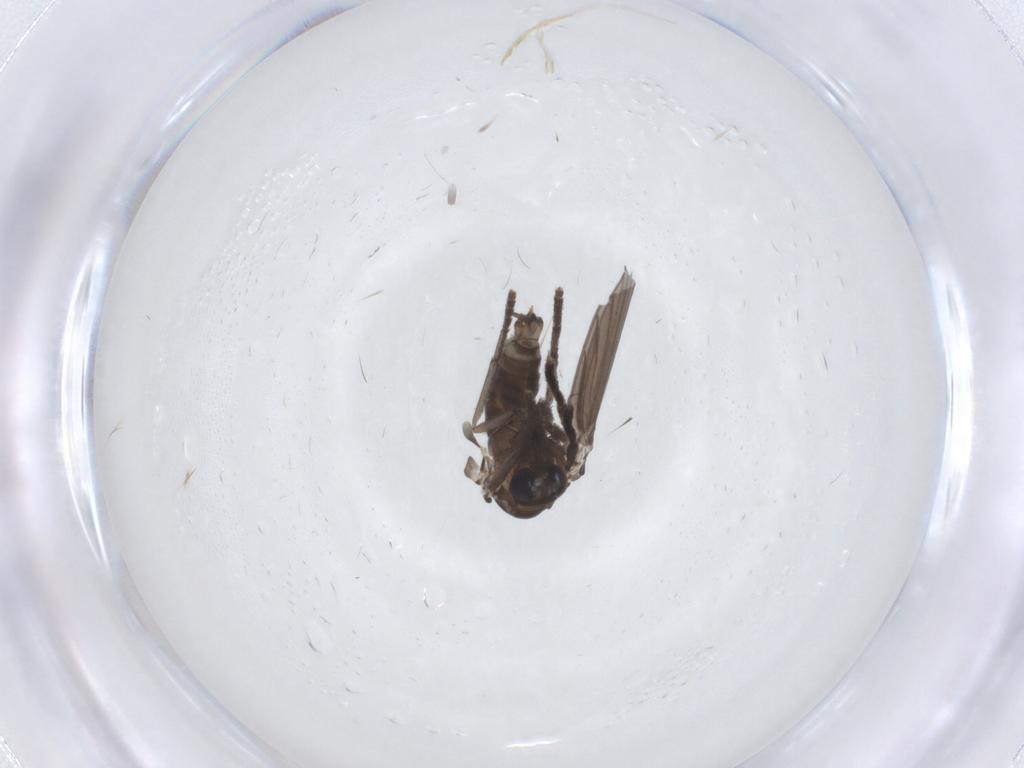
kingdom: Animalia
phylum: Arthropoda
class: Insecta
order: Diptera
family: Psychodidae
